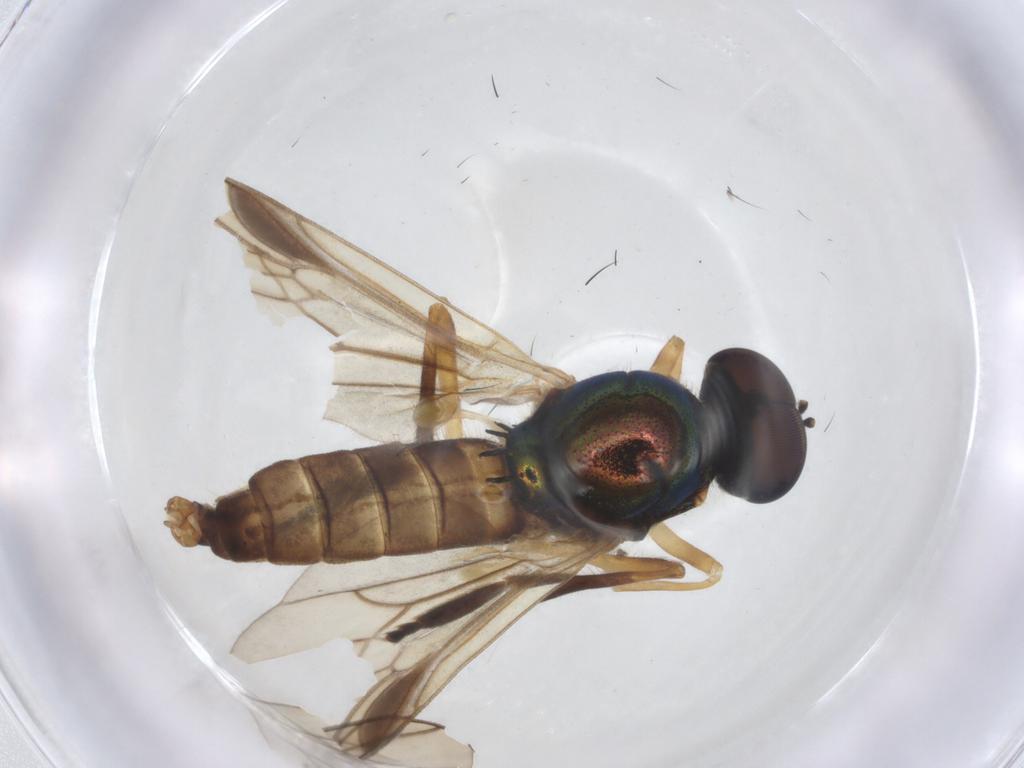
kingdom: Animalia
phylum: Arthropoda
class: Insecta
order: Diptera
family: Stratiomyidae
